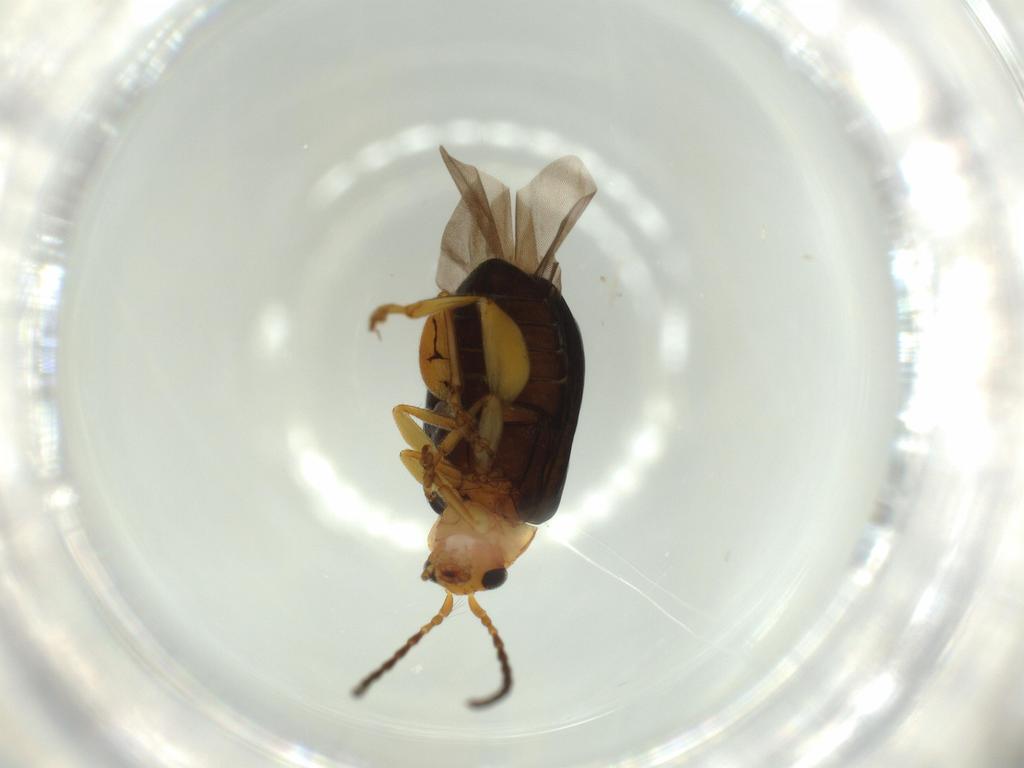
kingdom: Animalia
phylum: Arthropoda
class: Insecta
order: Coleoptera
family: Chrysomelidae
